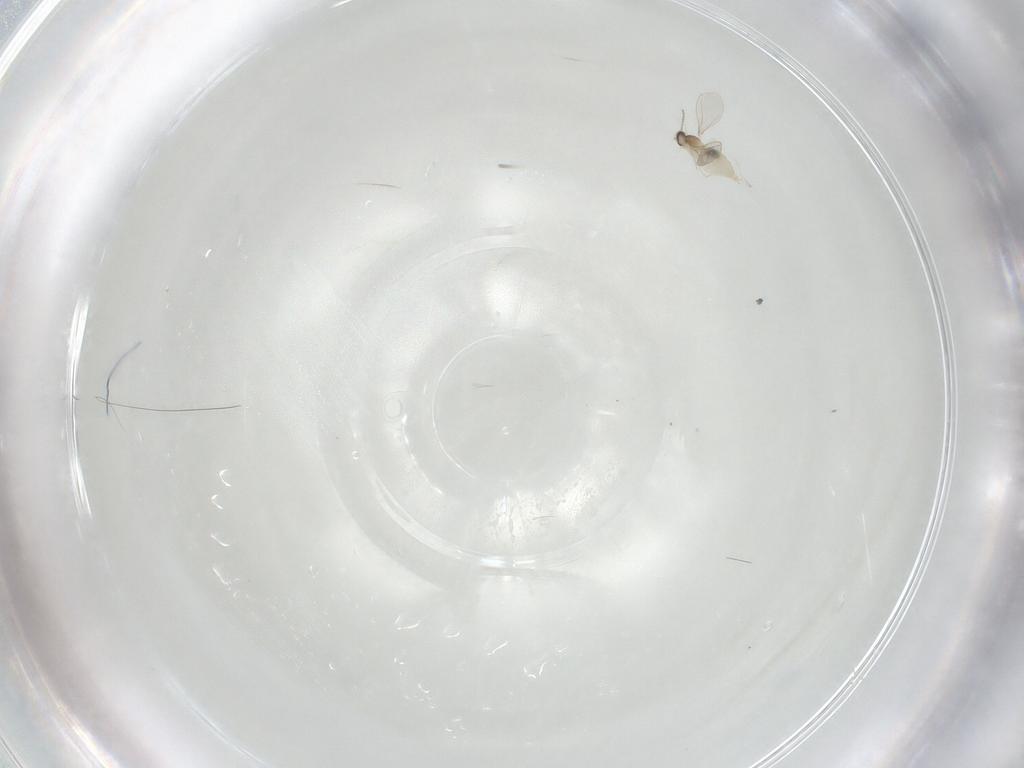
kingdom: Animalia
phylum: Arthropoda
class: Insecta
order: Diptera
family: Cecidomyiidae
